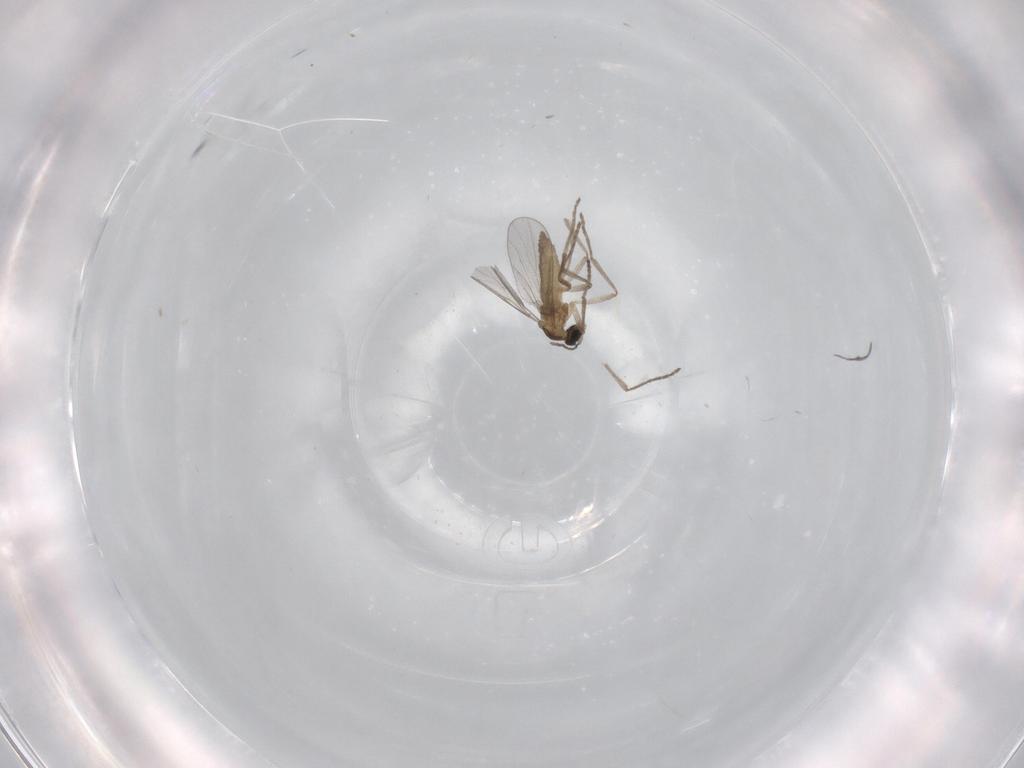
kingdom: Animalia
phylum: Arthropoda
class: Insecta
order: Diptera
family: Cecidomyiidae
